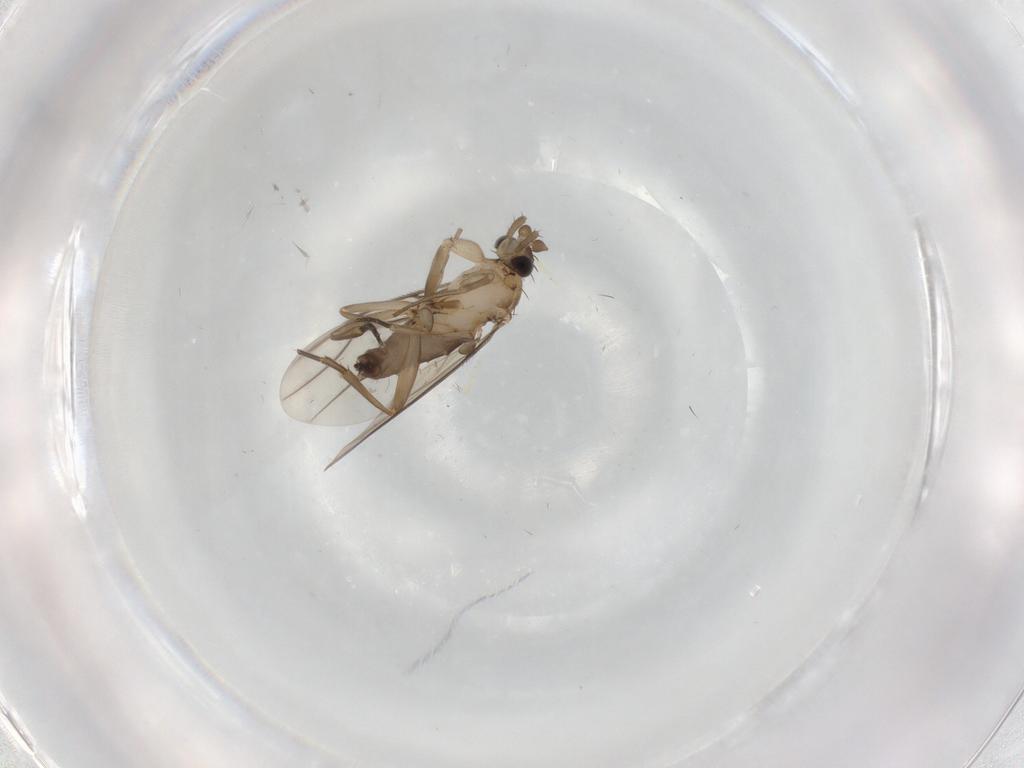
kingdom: Animalia
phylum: Arthropoda
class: Insecta
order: Diptera
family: Phoridae
